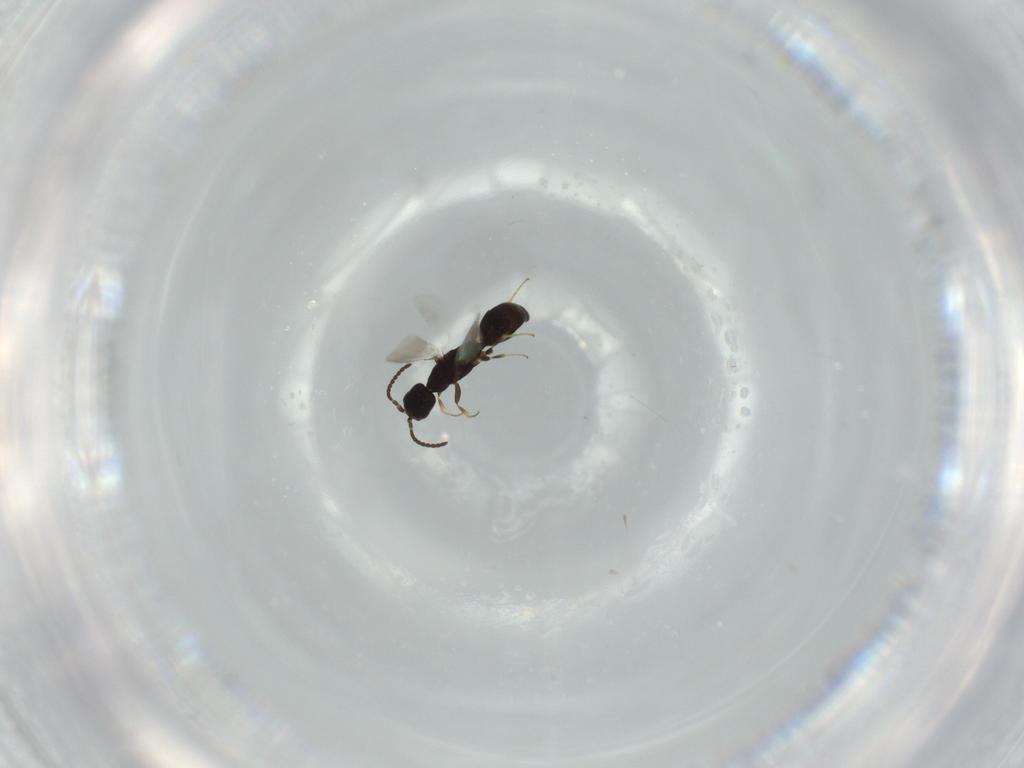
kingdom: Animalia
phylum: Arthropoda
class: Insecta
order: Hymenoptera
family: Bethylidae
